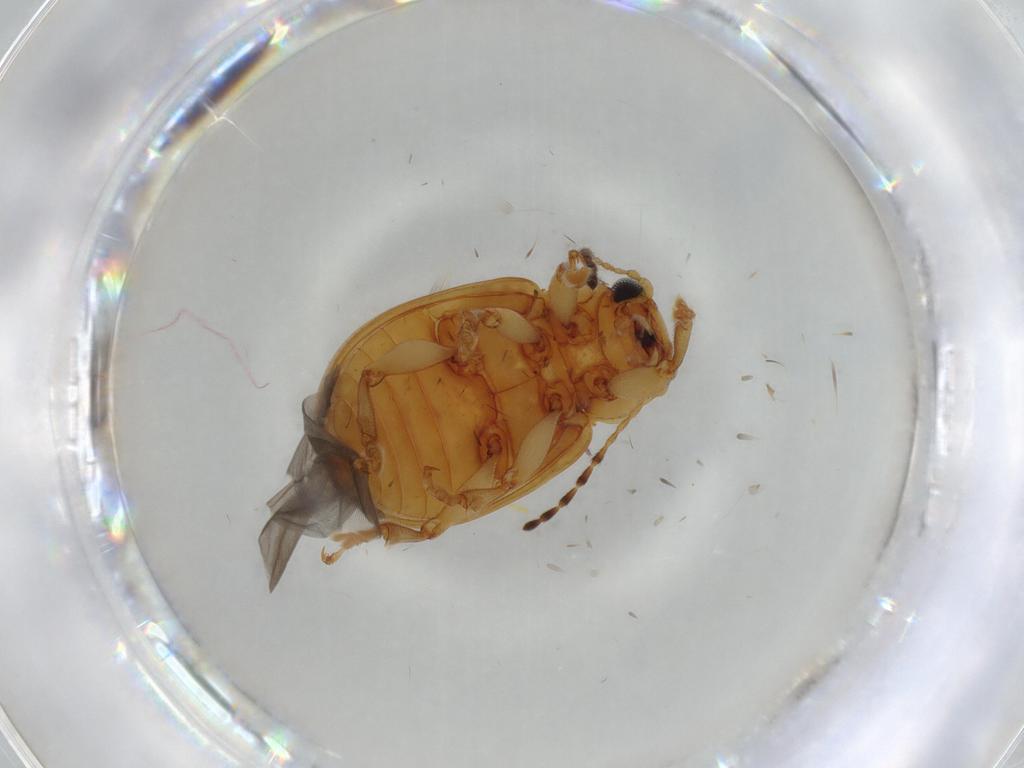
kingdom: Animalia
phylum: Arthropoda
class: Insecta
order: Coleoptera
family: Chrysomelidae
